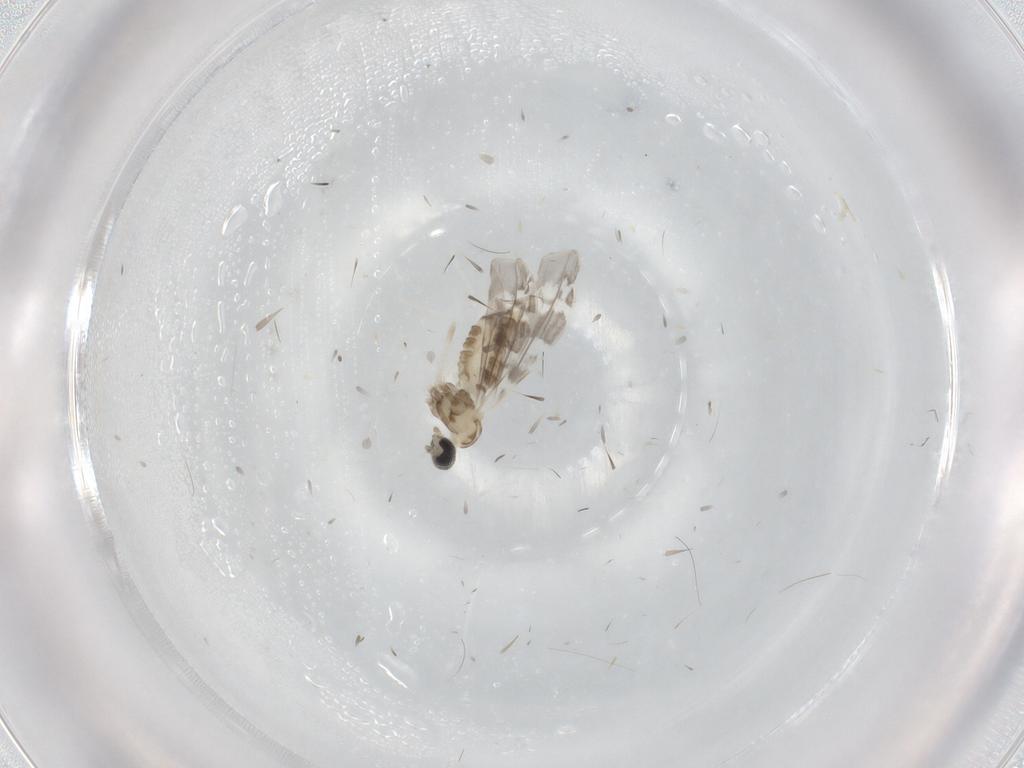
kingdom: Animalia
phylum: Arthropoda
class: Insecta
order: Diptera
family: Cecidomyiidae
